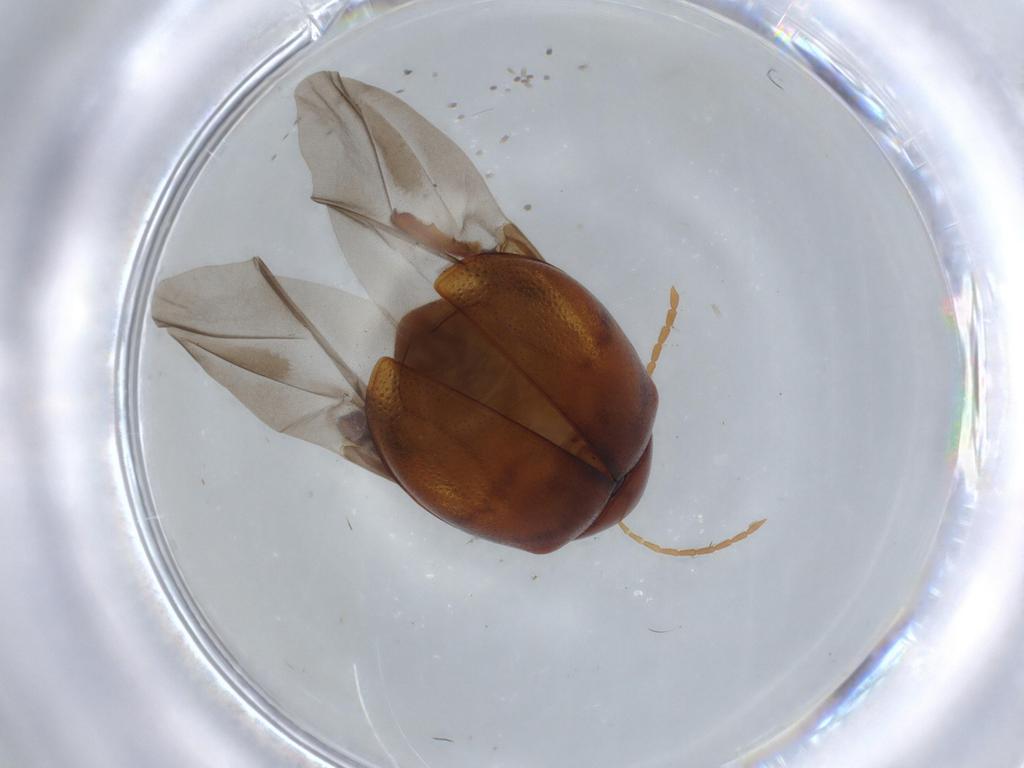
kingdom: Animalia
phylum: Arthropoda
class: Insecta
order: Coleoptera
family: Chrysomelidae
